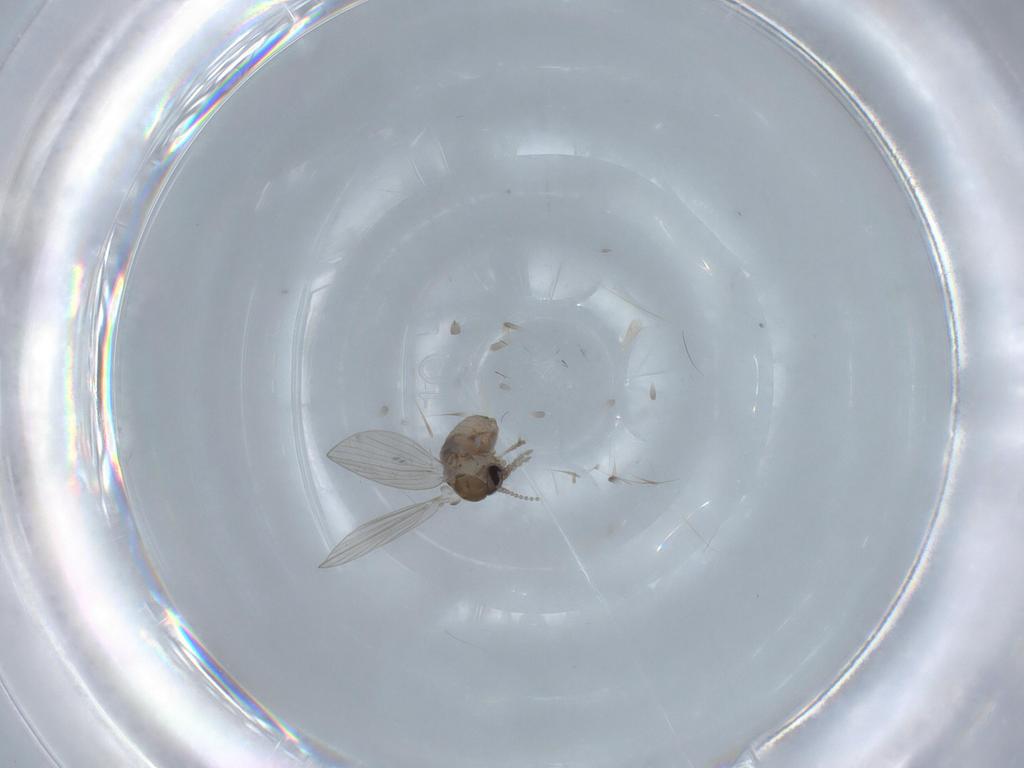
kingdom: Animalia
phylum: Arthropoda
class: Insecta
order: Diptera
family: Psychodidae
